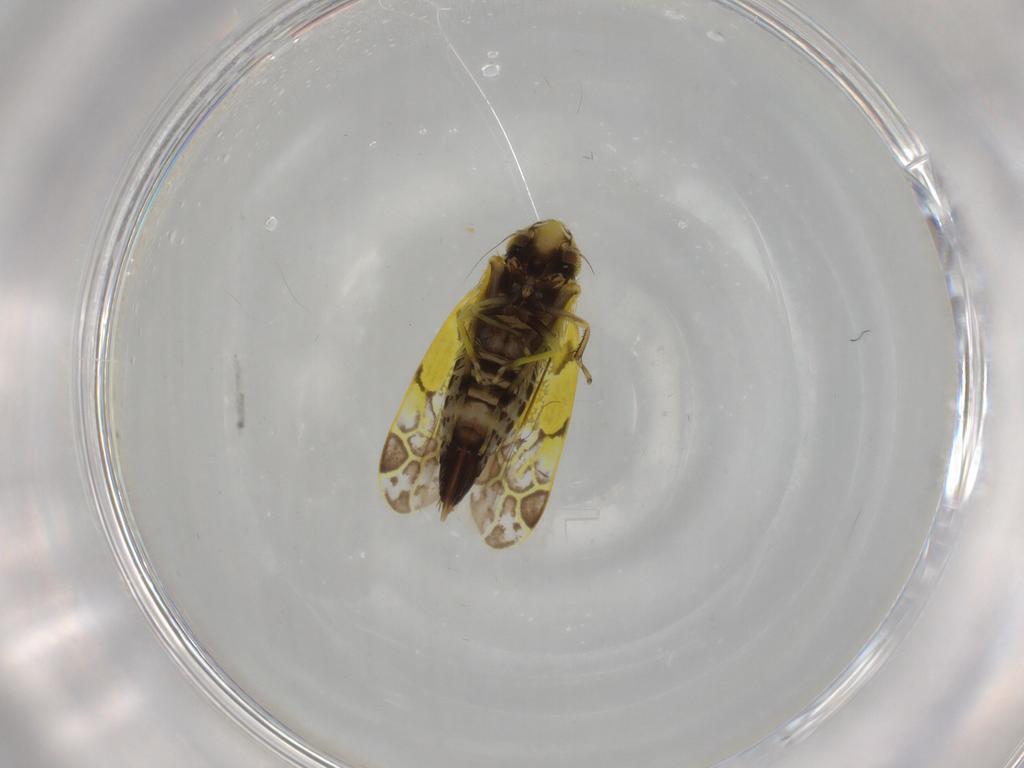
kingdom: Animalia
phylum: Arthropoda
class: Insecta
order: Hemiptera
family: Cicadellidae
